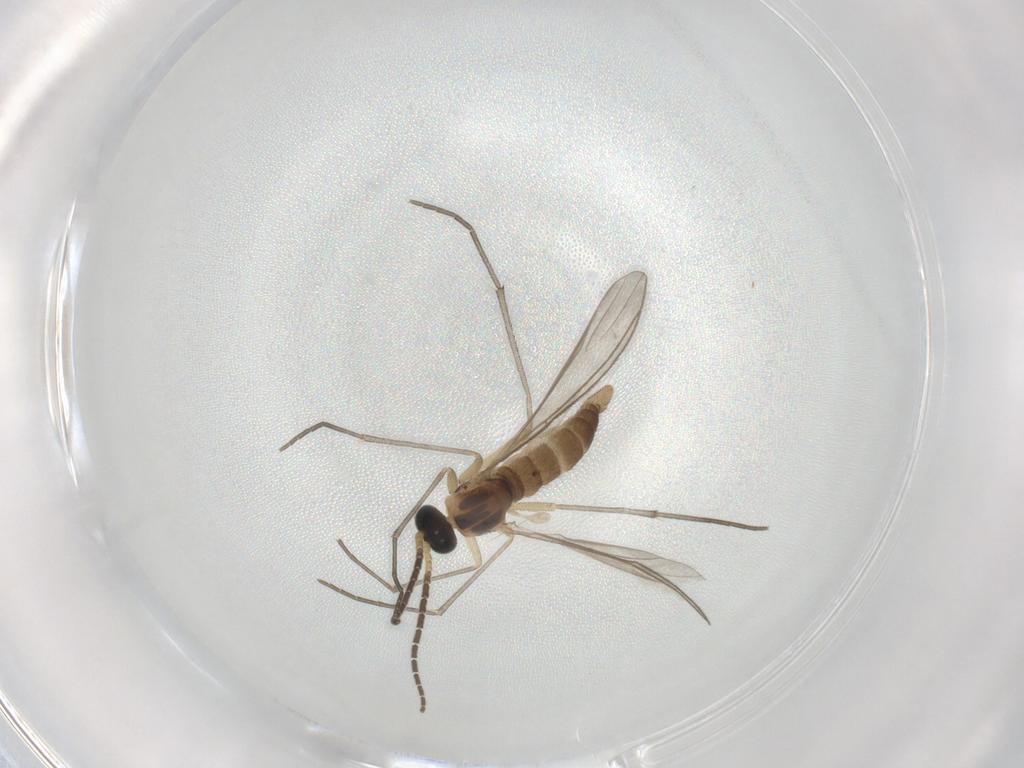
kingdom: Animalia
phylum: Arthropoda
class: Insecta
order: Diptera
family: Sciaridae
